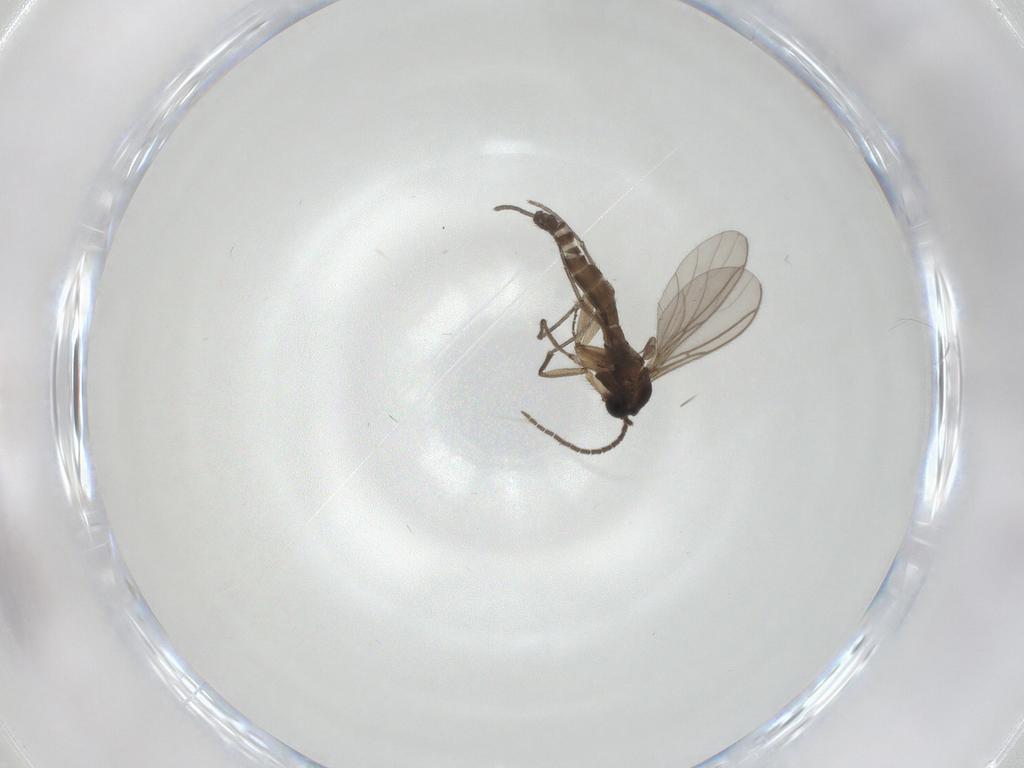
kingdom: Animalia
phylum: Arthropoda
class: Insecta
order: Diptera
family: Sciaridae
